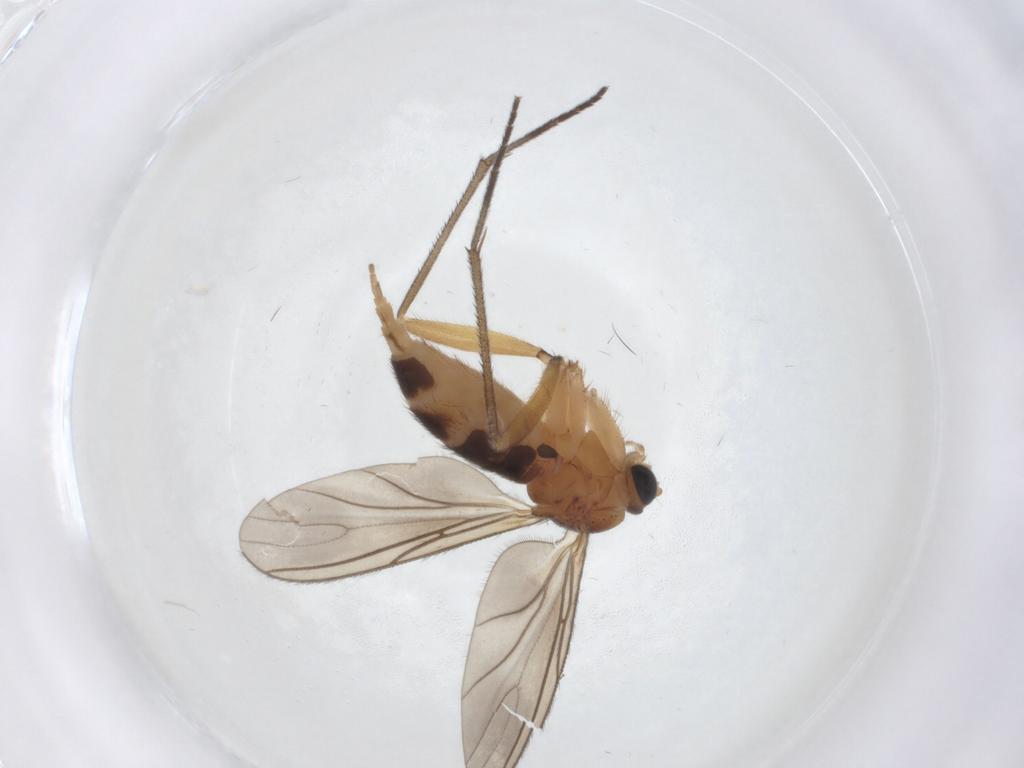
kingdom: Animalia
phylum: Arthropoda
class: Insecta
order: Diptera
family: Sciaridae
